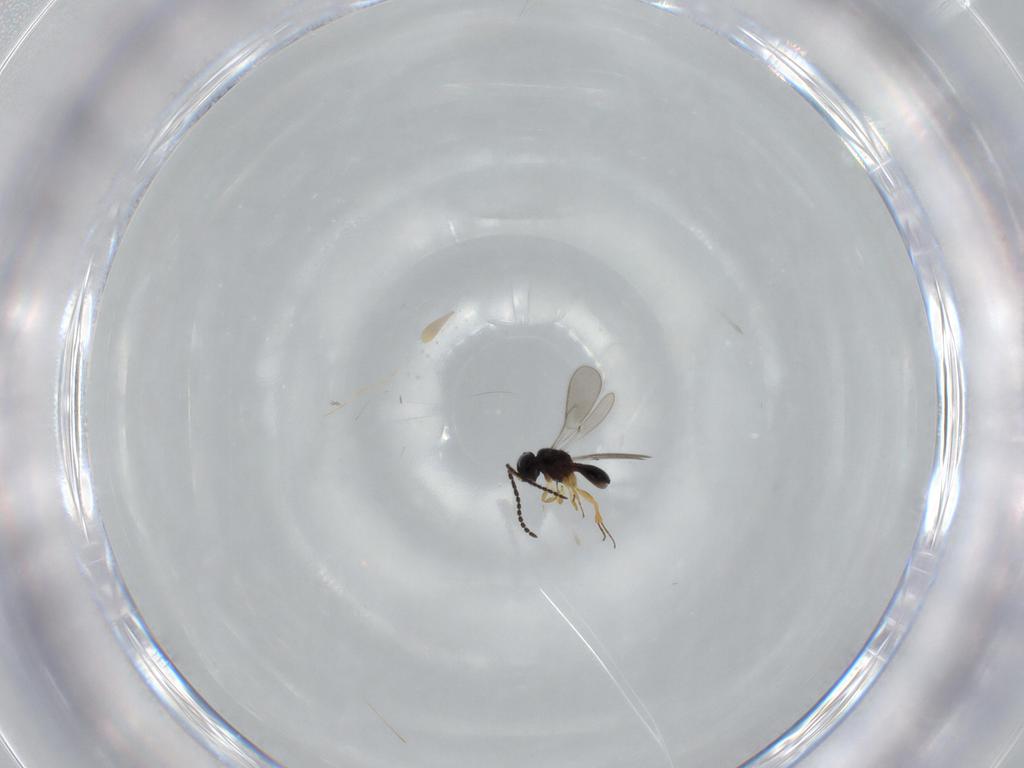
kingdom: Animalia
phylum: Arthropoda
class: Insecta
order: Hymenoptera
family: Scelionidae
